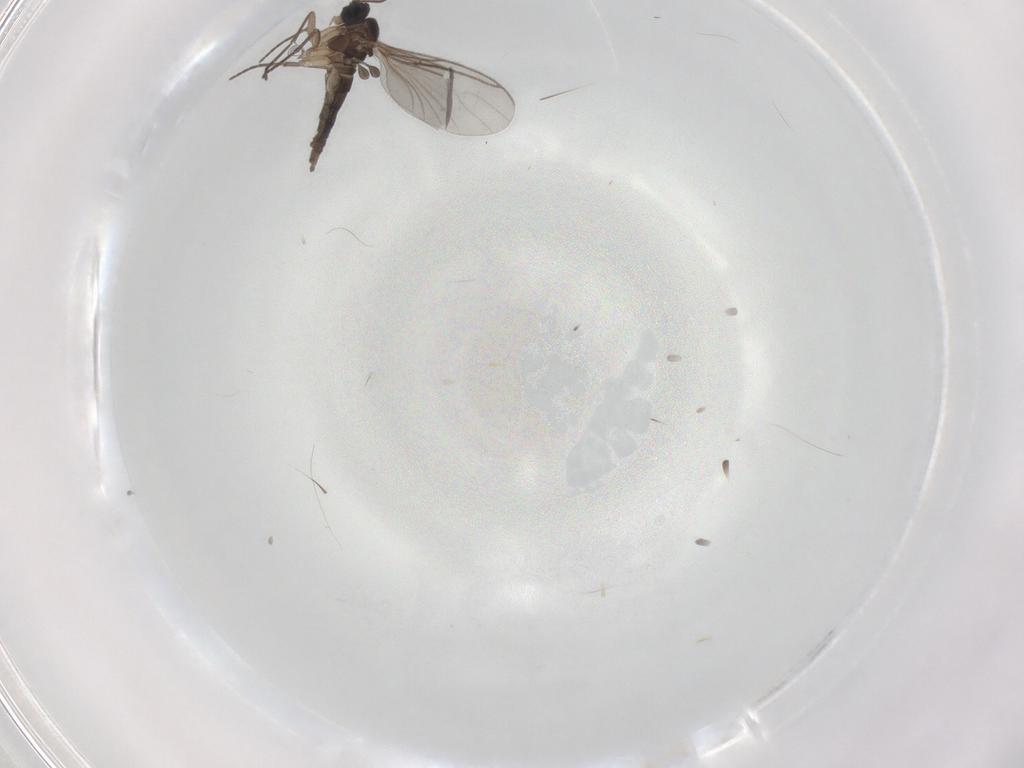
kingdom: Animalia
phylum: Arthropoda
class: Insecta
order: Diptera
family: Sciaridae
